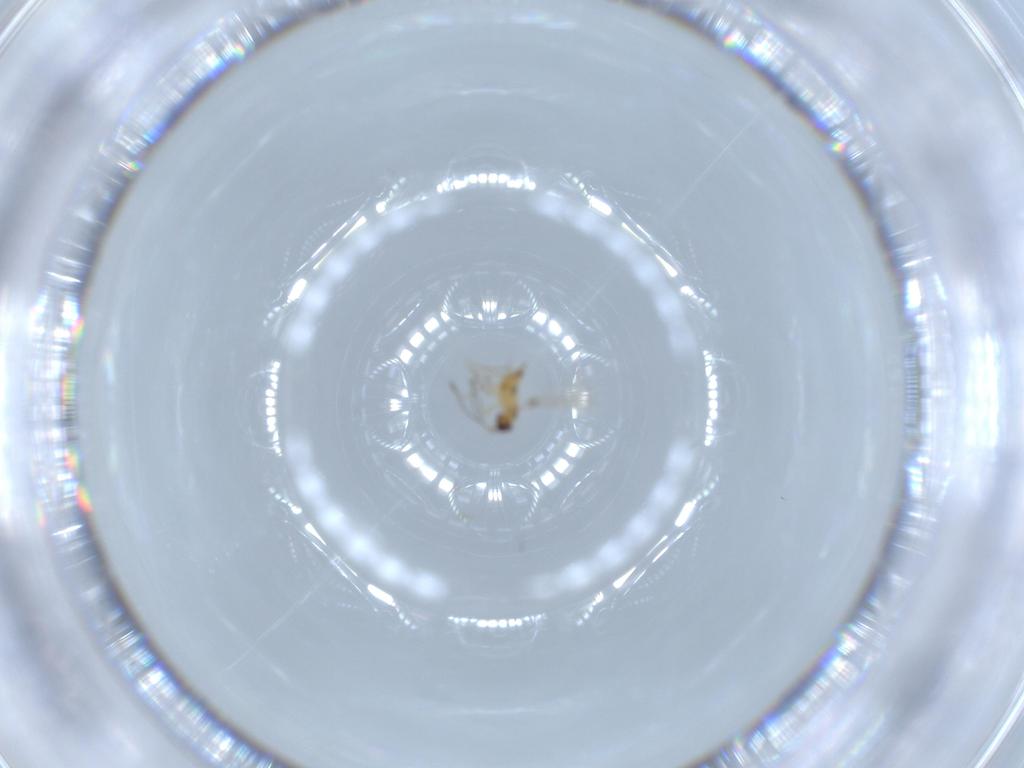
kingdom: Animalia
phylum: Arthropoda
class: Insecta
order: Hymenoptera
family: Mymaridae
